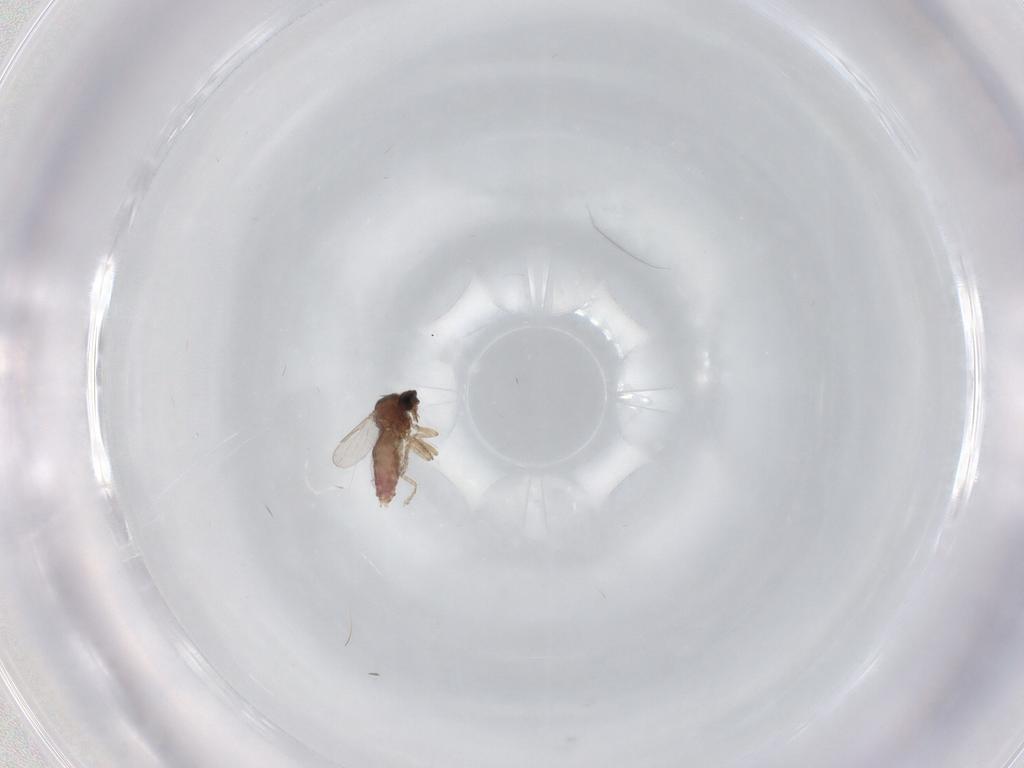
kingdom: Animalia
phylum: Arthropoda
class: Insecta
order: Diptera
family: Ceratopogonidae
